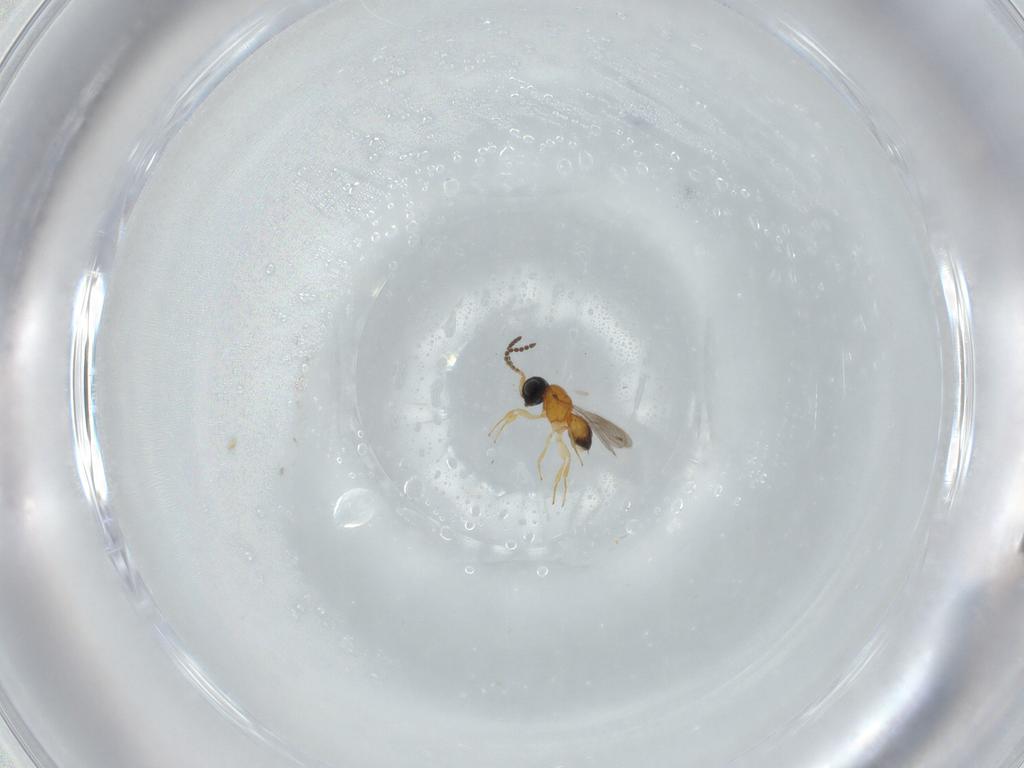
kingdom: Animalia
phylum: Arthropoda
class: Insecta
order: Hymenoptera
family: Scelionidae
